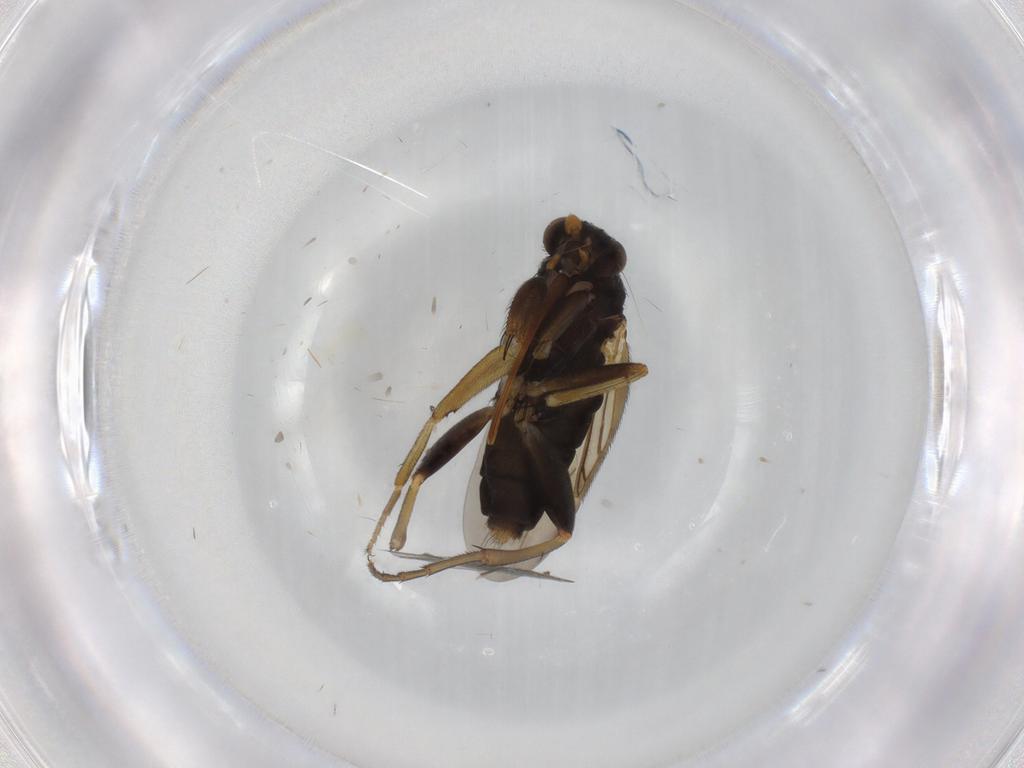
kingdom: Animalia
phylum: Arthropoda
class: Insecta
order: Diptera
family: Phoridae
